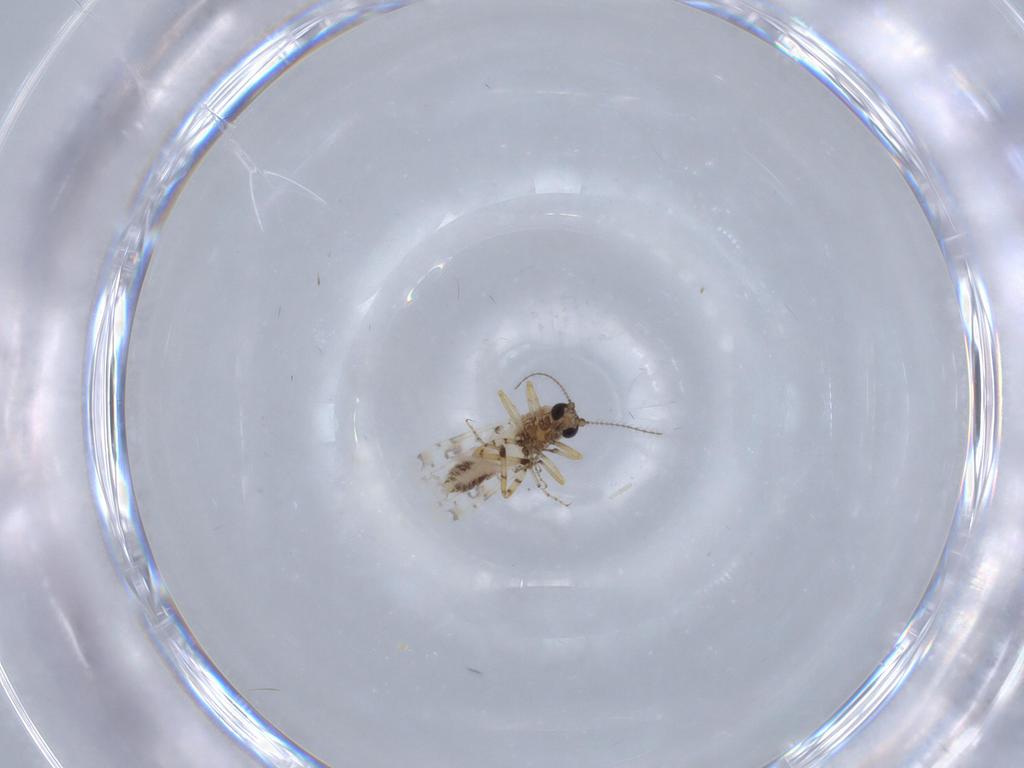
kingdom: Animalia
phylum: Arthropoda
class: Insecta
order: Diptera
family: Chironomidae
